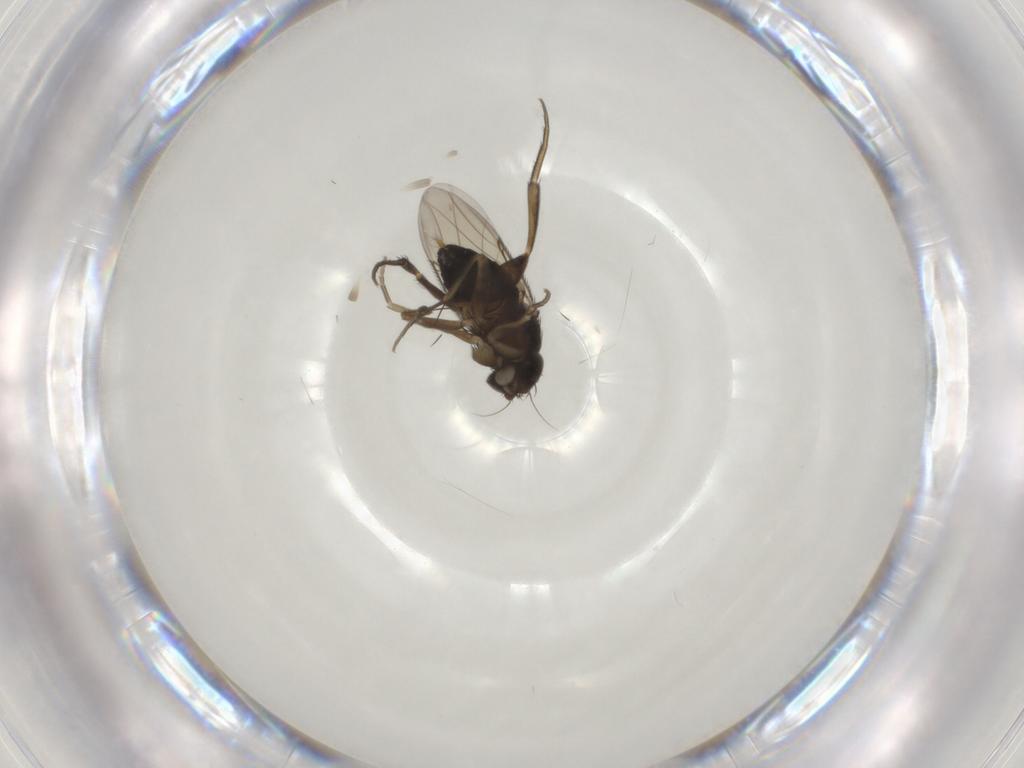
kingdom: Animalia
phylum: Arthropoda
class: Insecta
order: Diptera
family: Phoridae
